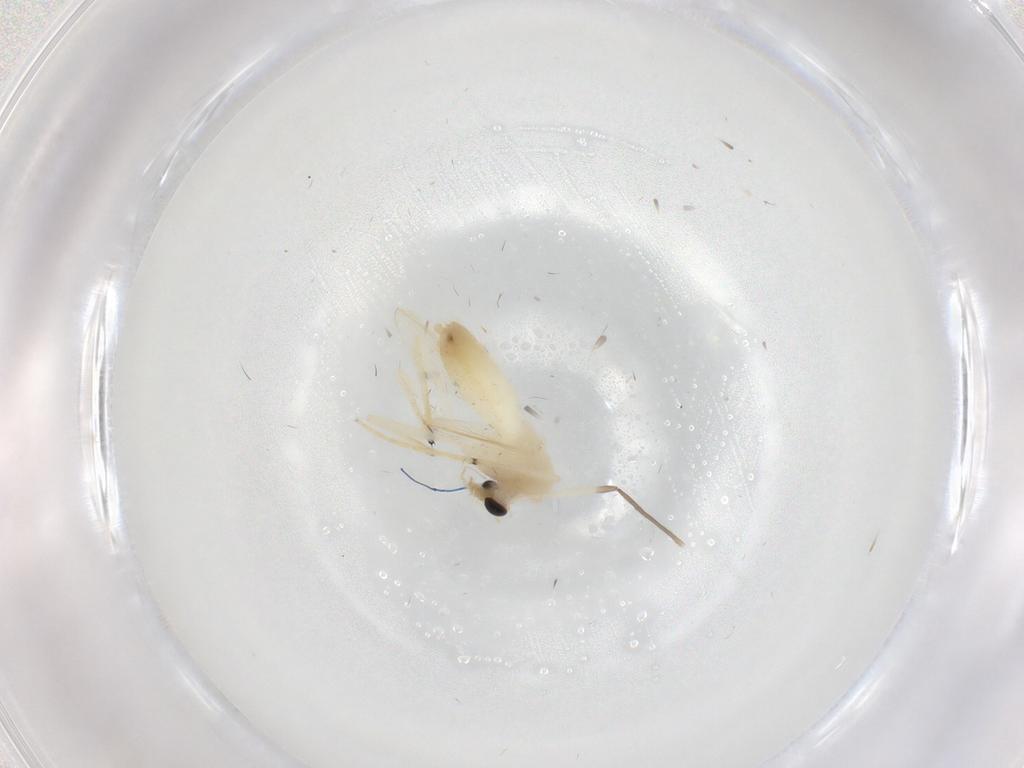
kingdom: Animalia
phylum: Arthropoda
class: Insecta
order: Diptera
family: Chironomidae
